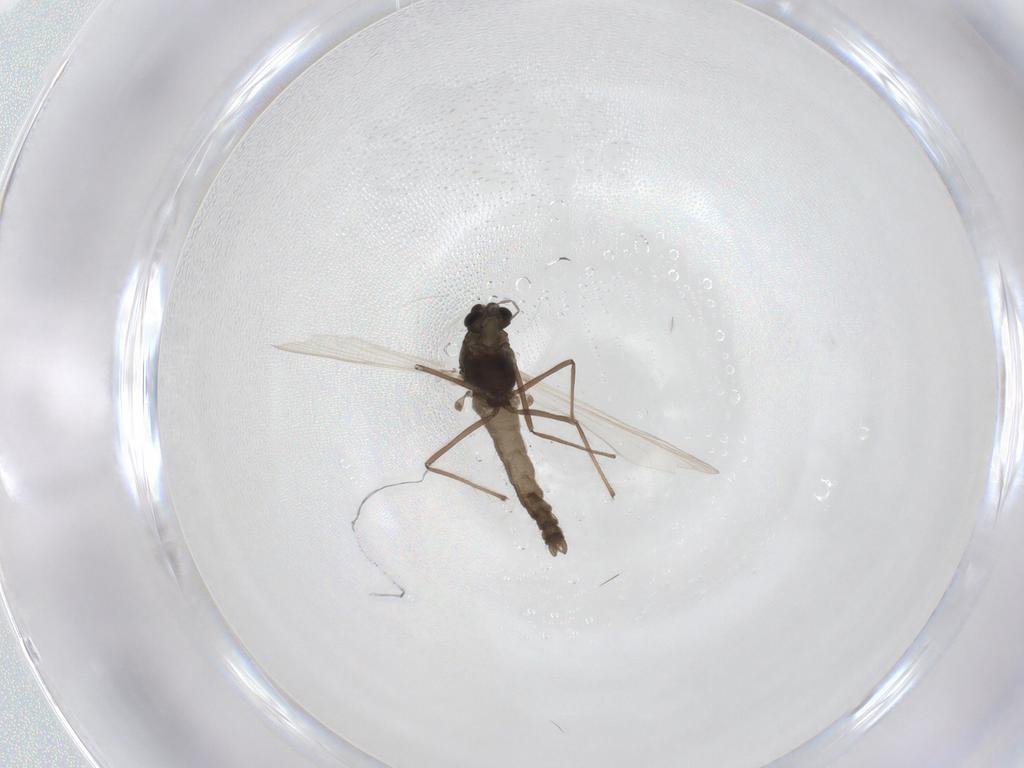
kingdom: Animalia
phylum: Arthropoda
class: Insecta
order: Diptera
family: Chironomidae
